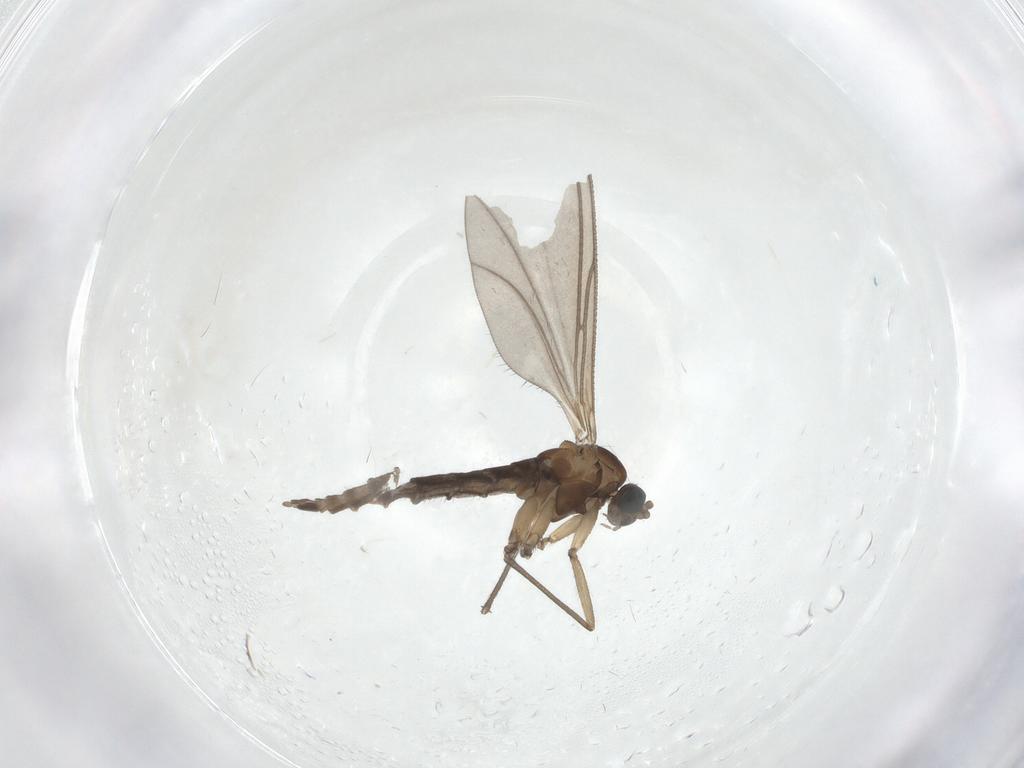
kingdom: Animalia
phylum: Arthropoda
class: Insecta
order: Diptera
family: Sciaridae
